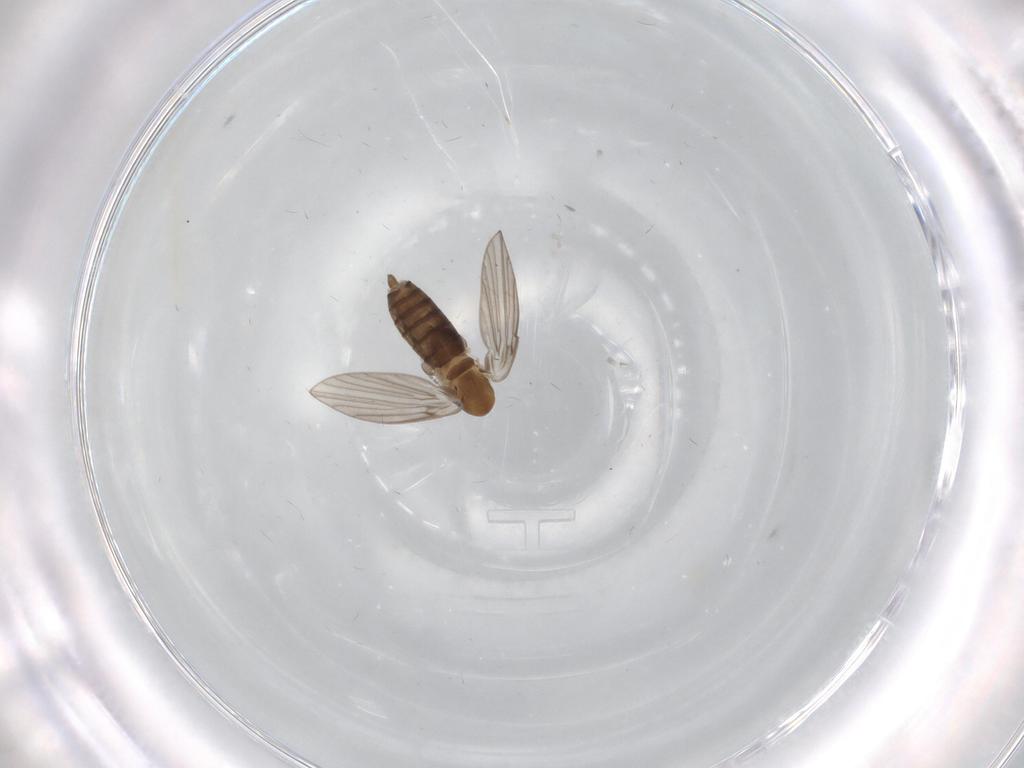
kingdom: Animalia
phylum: Arthropoda
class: Insecta
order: Diptera
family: Psychodidae
